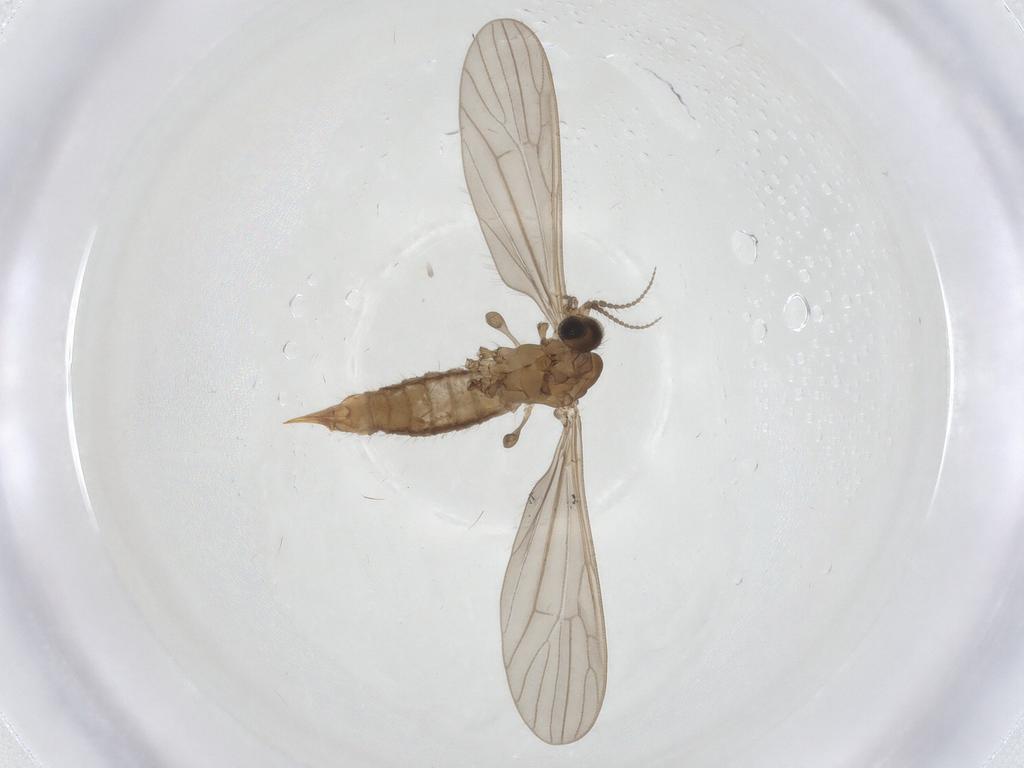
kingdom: Animalia
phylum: Arthropoda
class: Insecta
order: Diptera
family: Limoniidae
